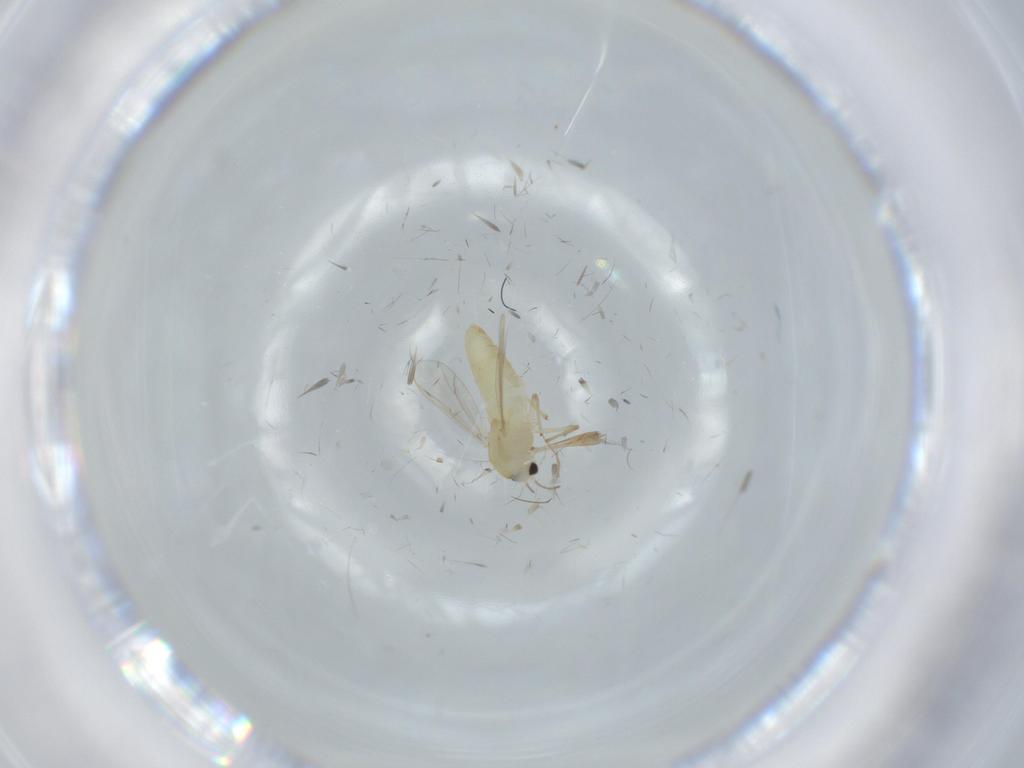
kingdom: Animalia
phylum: Arthropoda
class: Insecta
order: Diptera
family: Chironomidae
